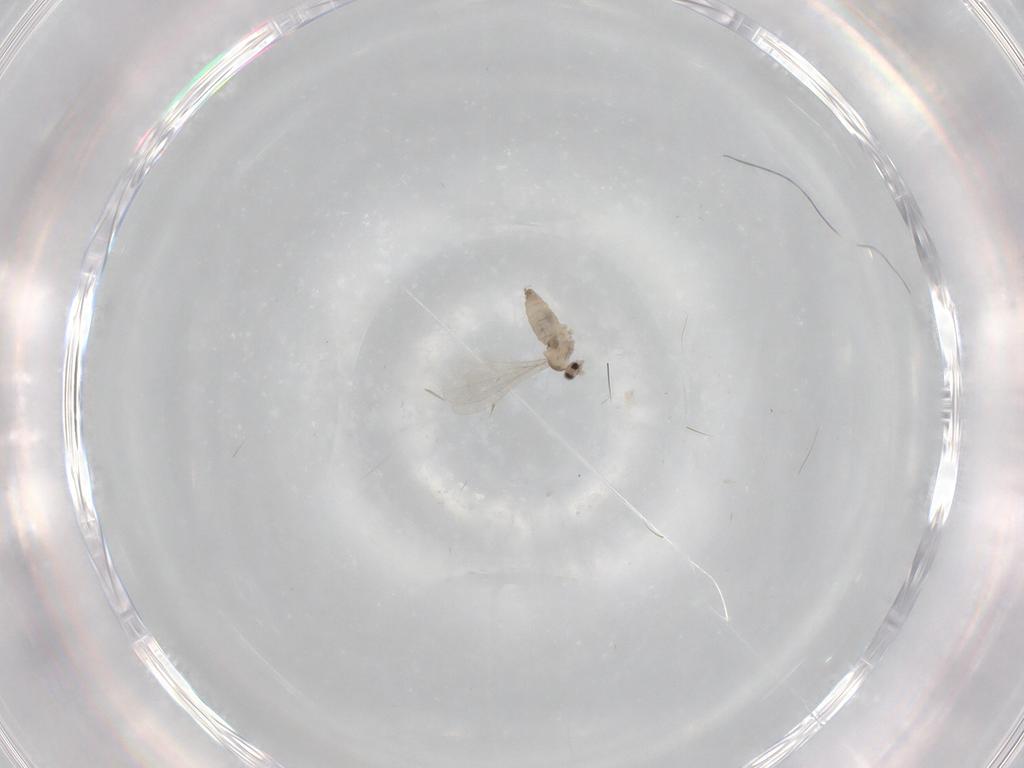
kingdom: Animalia
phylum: Arthropoda
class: Insecta
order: Diptera
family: Cecidomyiidae
